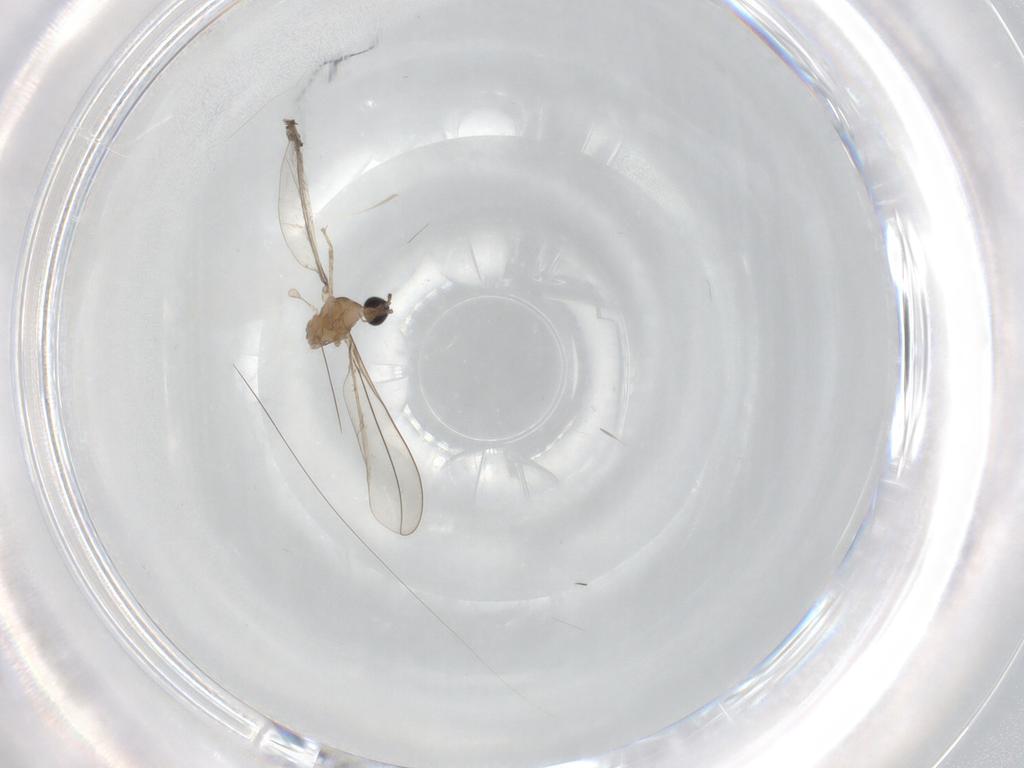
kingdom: Animalia
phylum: Arthropoda
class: Insecta
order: Diptera
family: Cecidomyiidae
